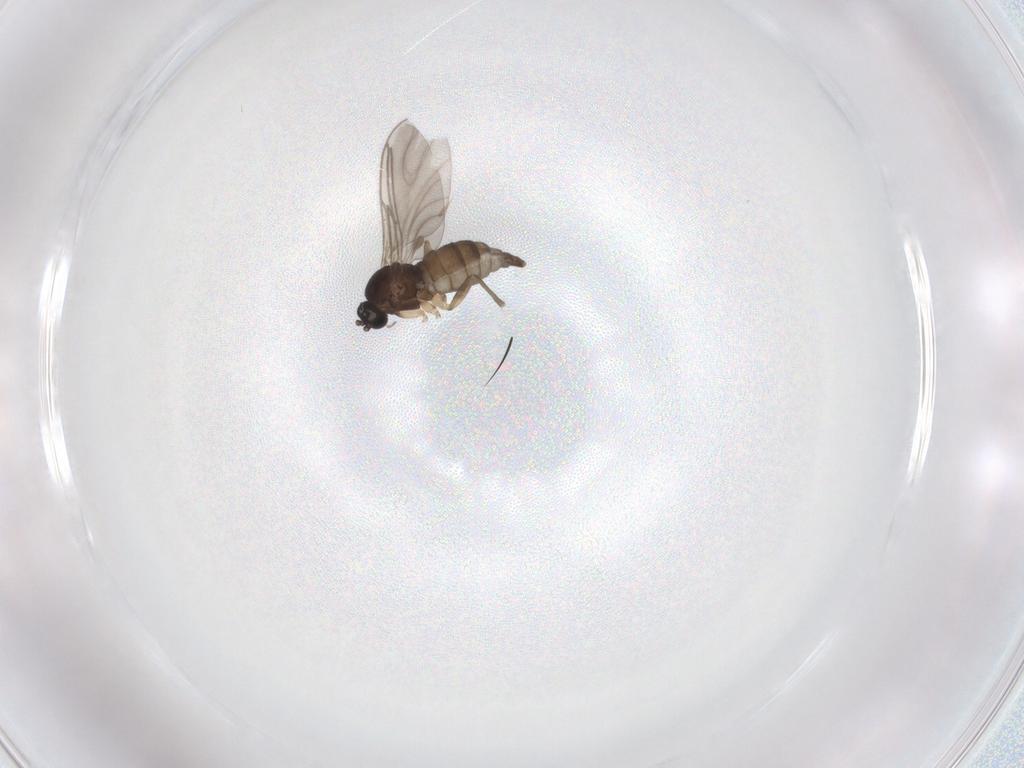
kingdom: Animalia
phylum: Arthropoda
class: Insecta
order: Diptera
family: Sciaridae
